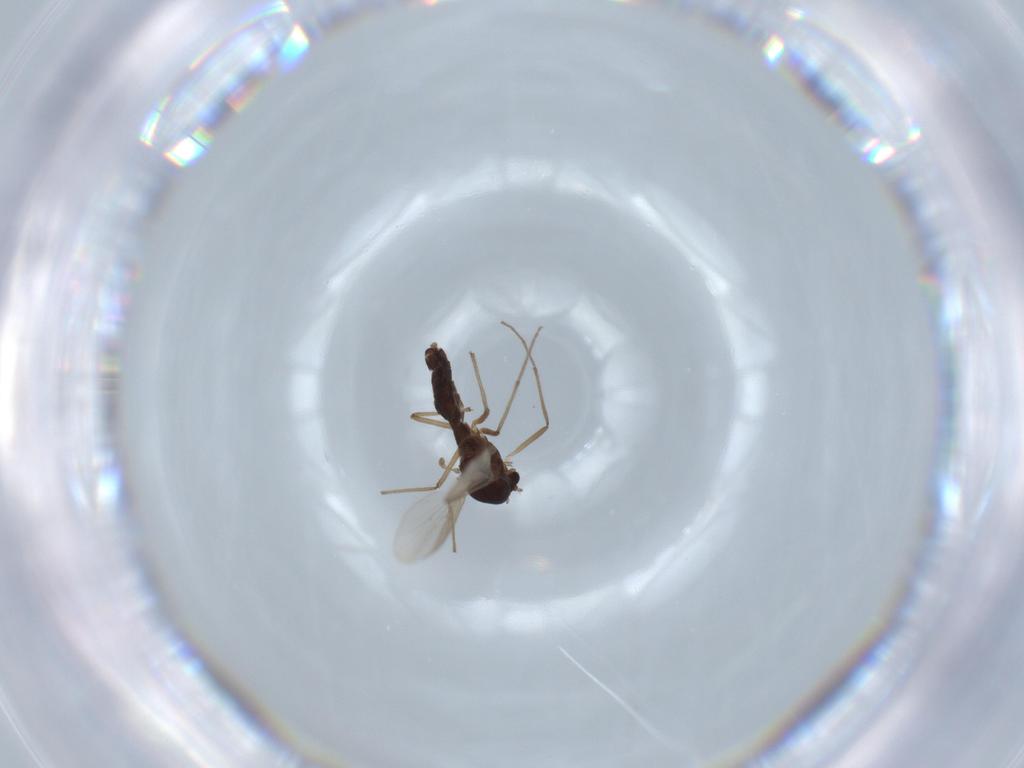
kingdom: Animalia
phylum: Arthropoda
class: Insecta
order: Diptera
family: Chironomidae
